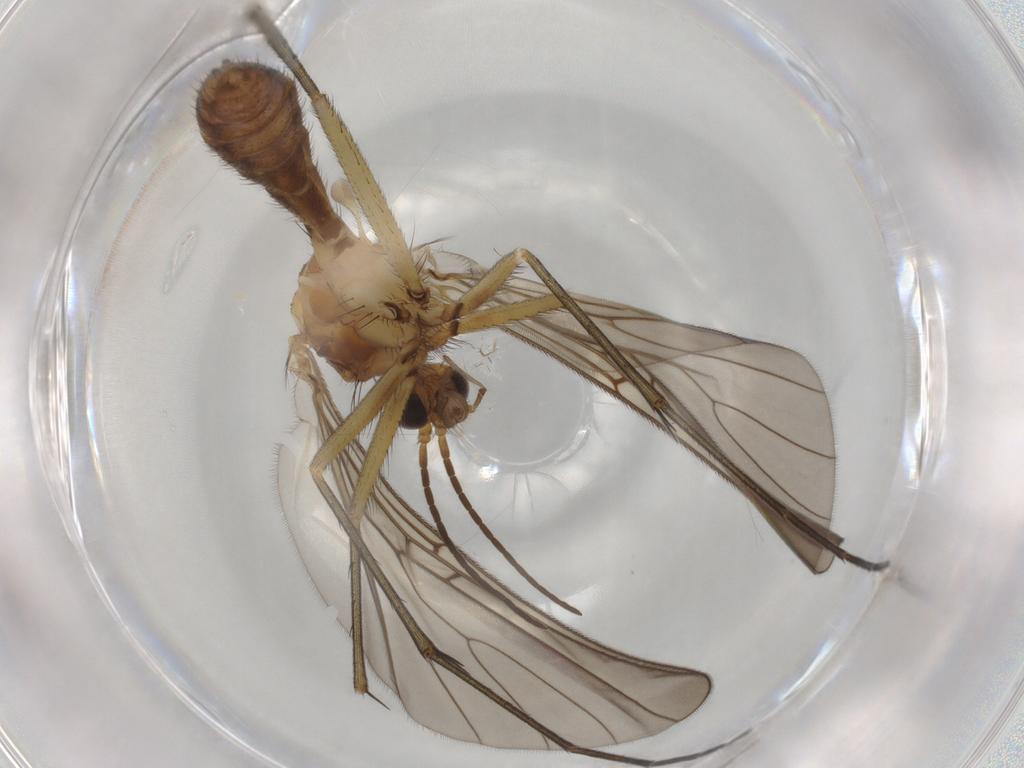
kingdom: Animalia
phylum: Arthropoda
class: Insecta
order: Diptera
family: Mycetophilidae
